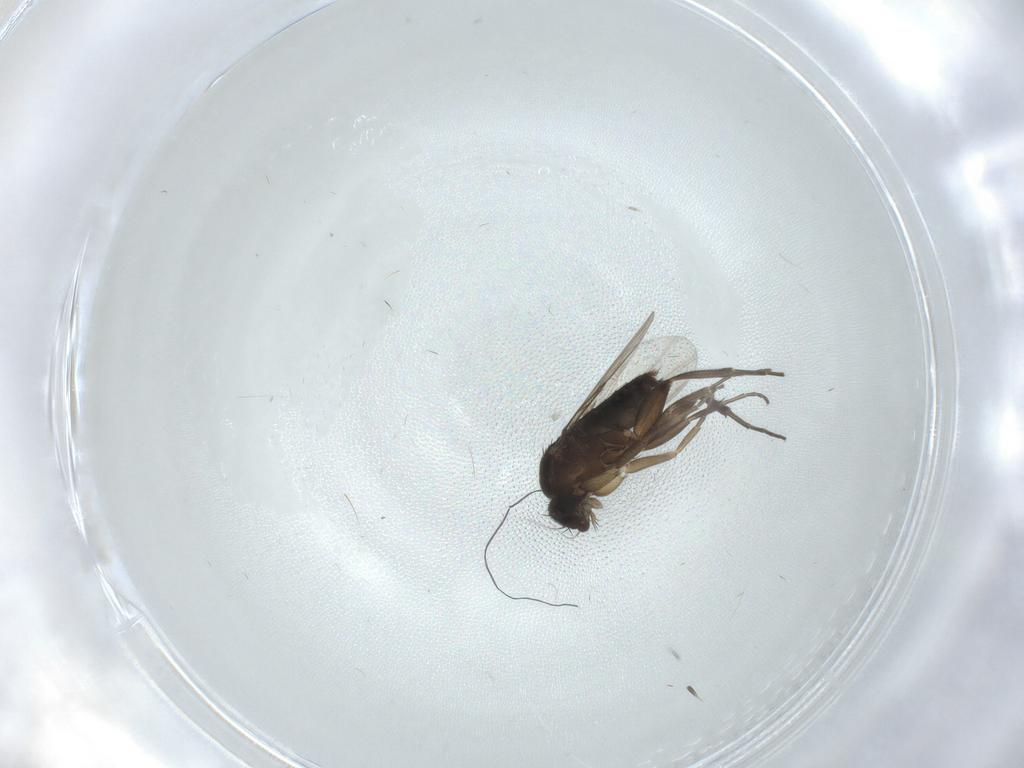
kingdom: Animalia
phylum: Arthropoda
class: Insecta
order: Diptera
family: Phoridae
